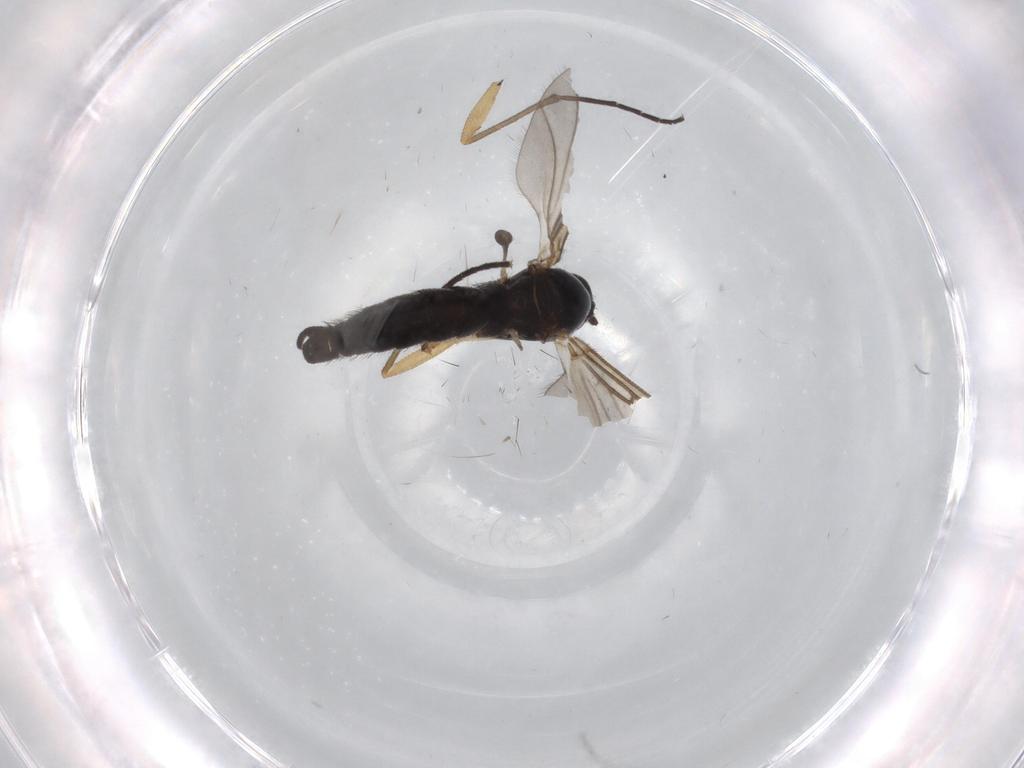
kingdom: Animalia
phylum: Arthropoda
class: Insecta
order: Diptera
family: Sciaridae
